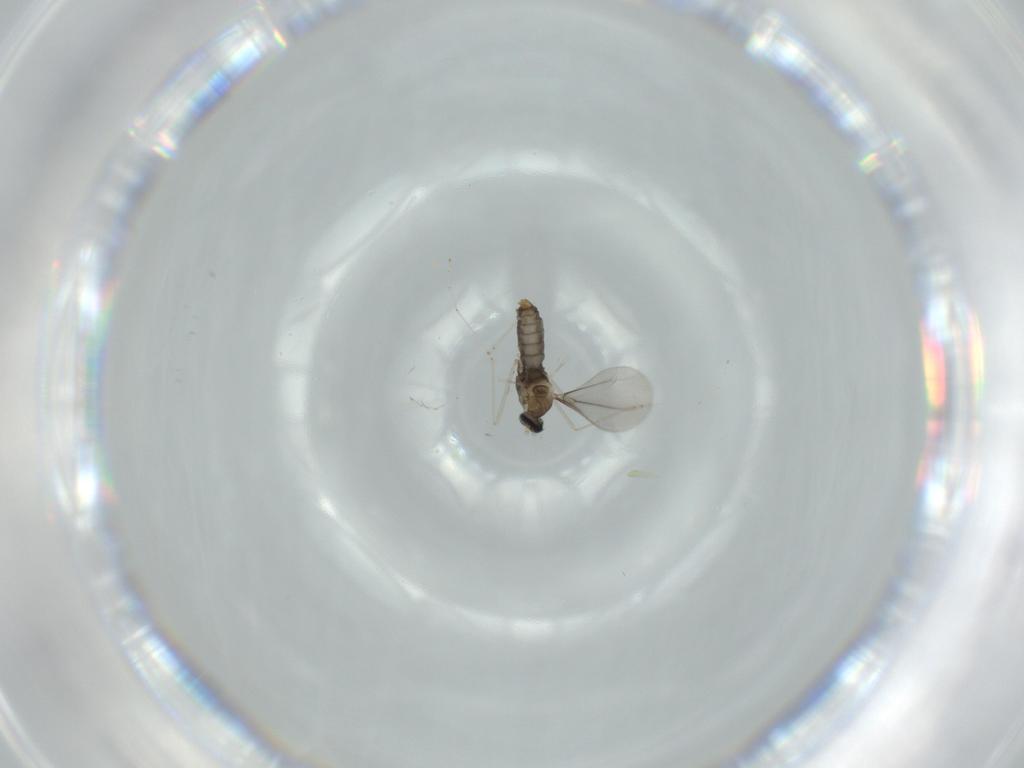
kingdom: Animalia
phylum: Arthropoda
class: Insecta
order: Diptera
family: Cecidomyiidae
